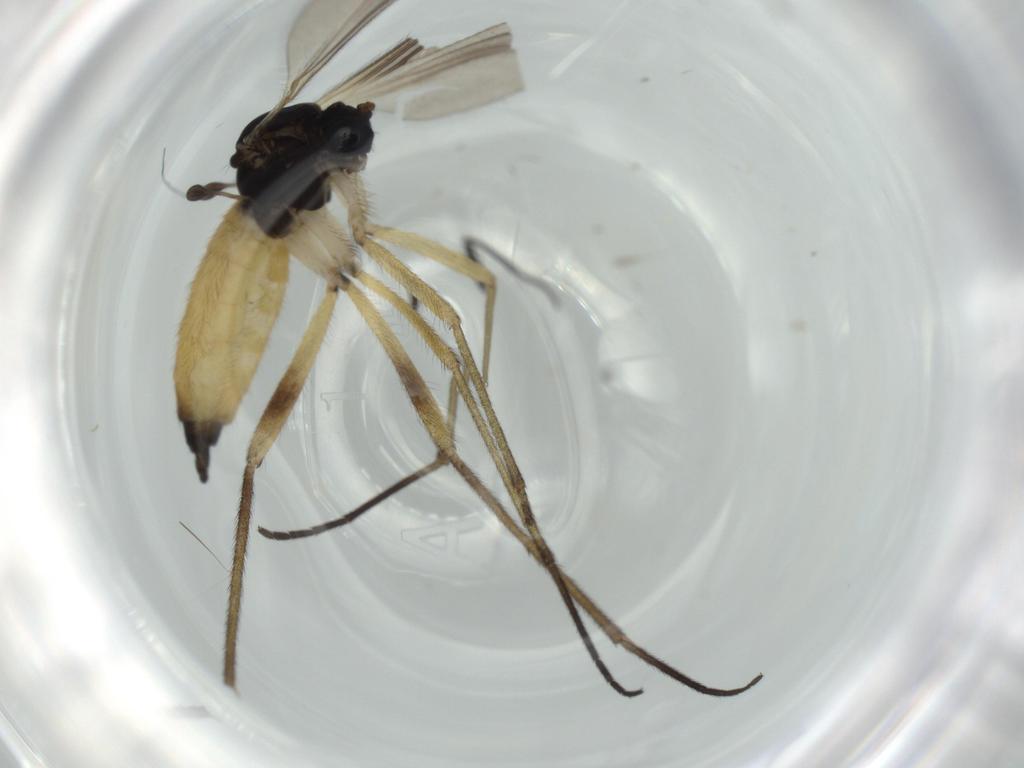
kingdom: Animalia
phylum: Arthropoda
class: Insecta
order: Diptera
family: Sciaridae
